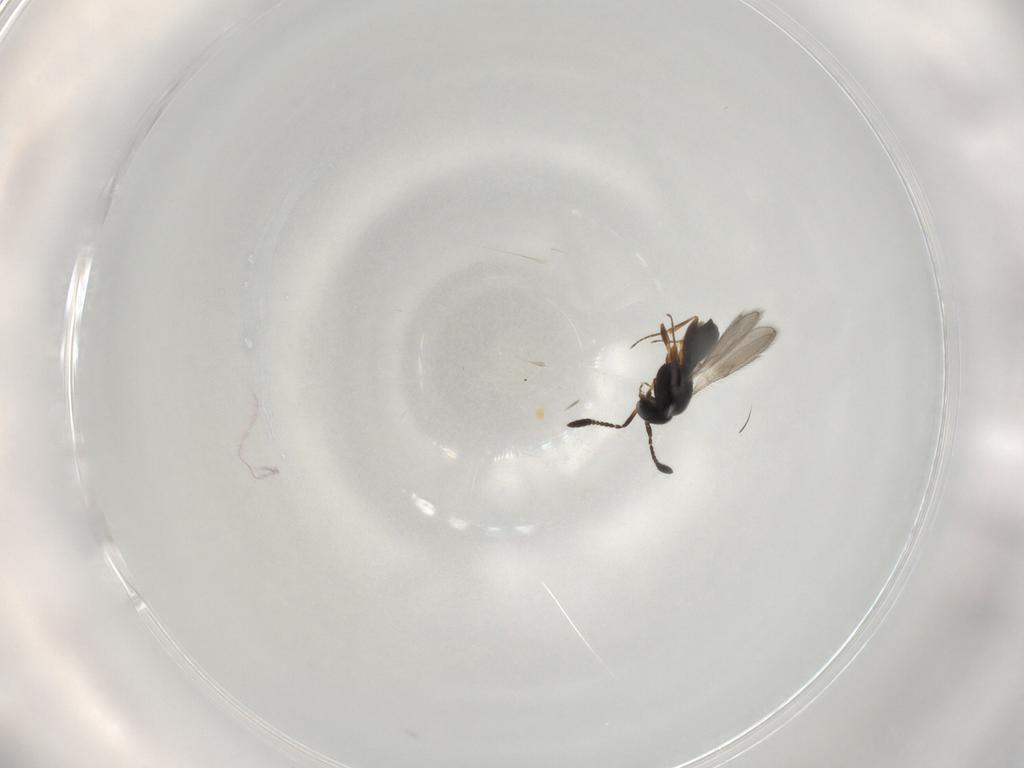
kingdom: Animalia
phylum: Arthropoda
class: Insecta
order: Hymenoptera
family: Scelionidae
